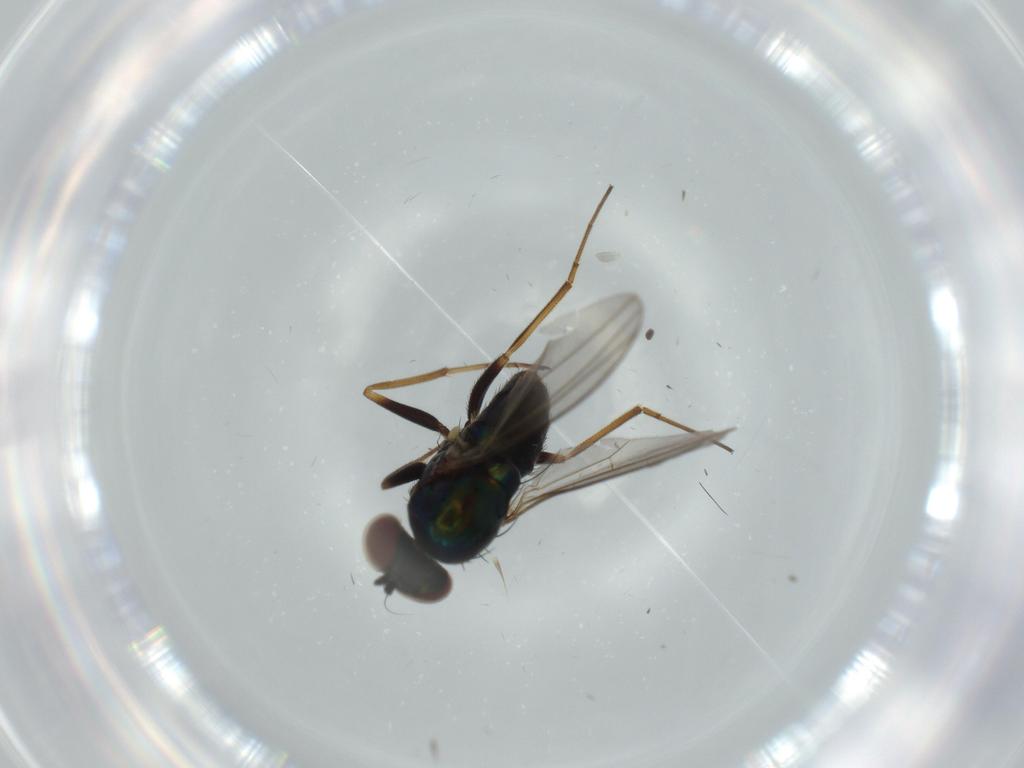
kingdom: Animalia
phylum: Arthropoda
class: Insecta
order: Diptera
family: Dolichopodidae
